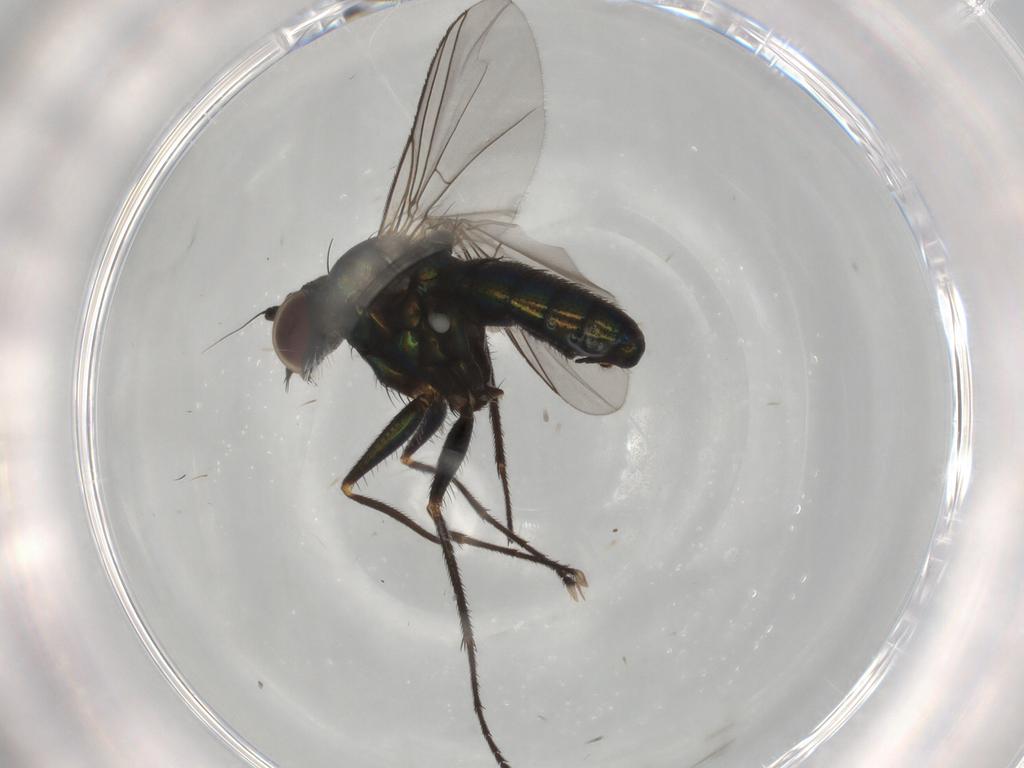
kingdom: Animalia
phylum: Arthropoda
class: Insecta
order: Diptera
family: Dolichopodidae
